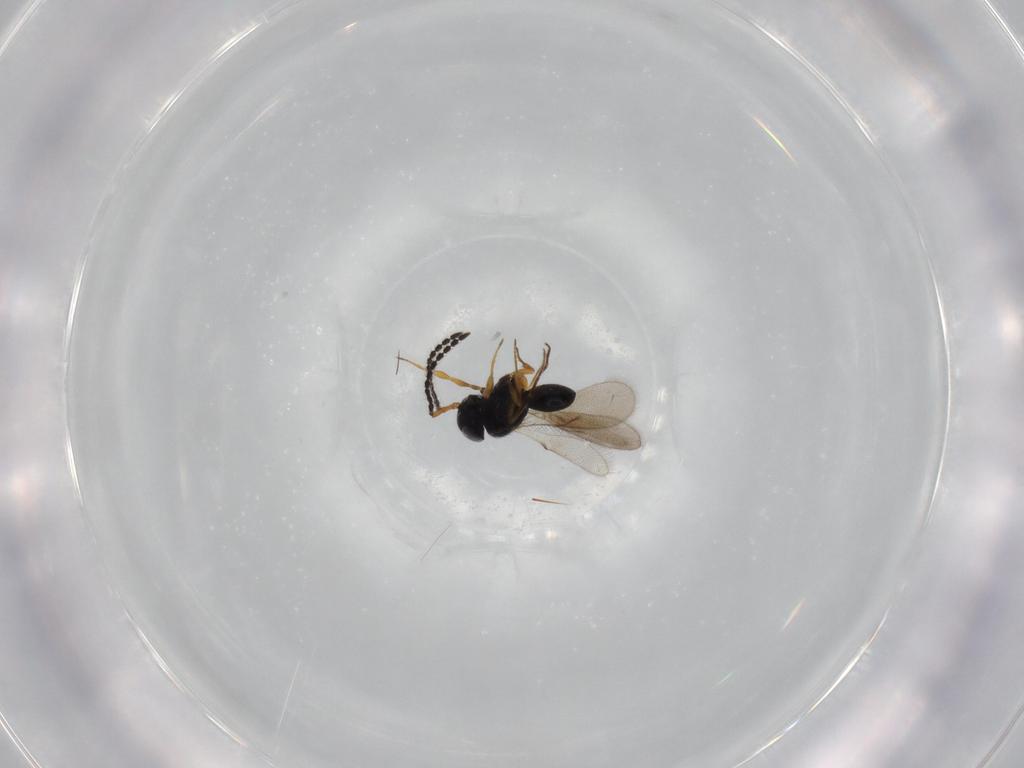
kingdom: Animalia
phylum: Arthropoda
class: Insecta
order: Hymenoptera
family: Scelionidae
